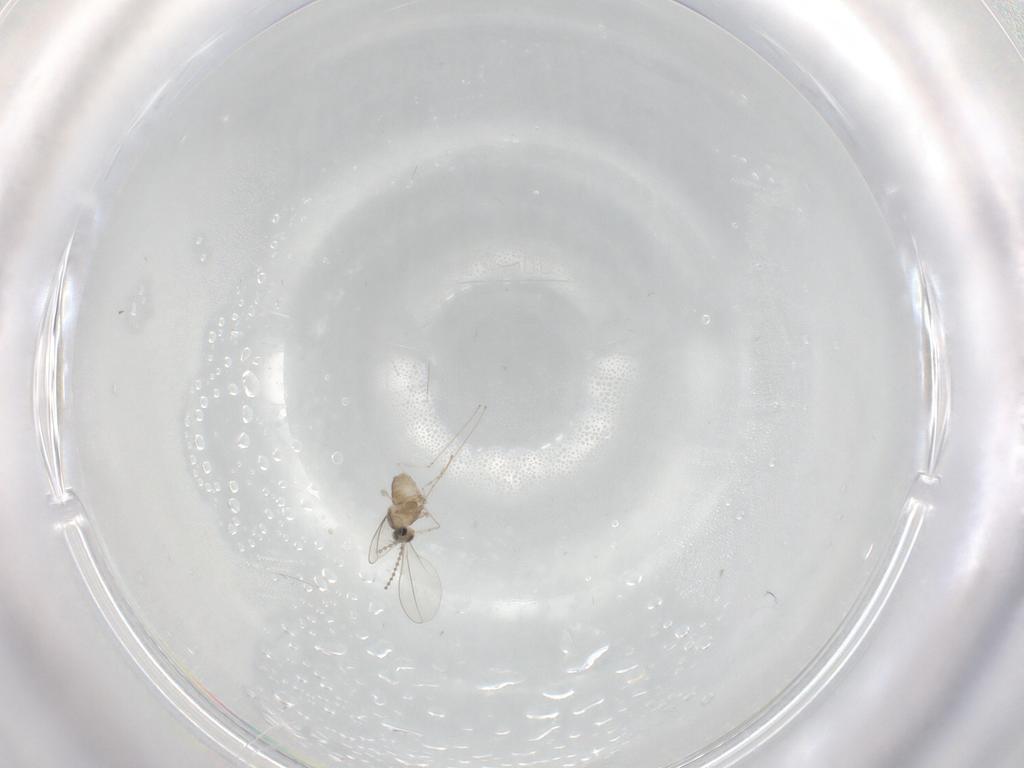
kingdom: Animalia
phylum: Arthropoda
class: Insecta
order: Diptera
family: Cecidomyiidae
